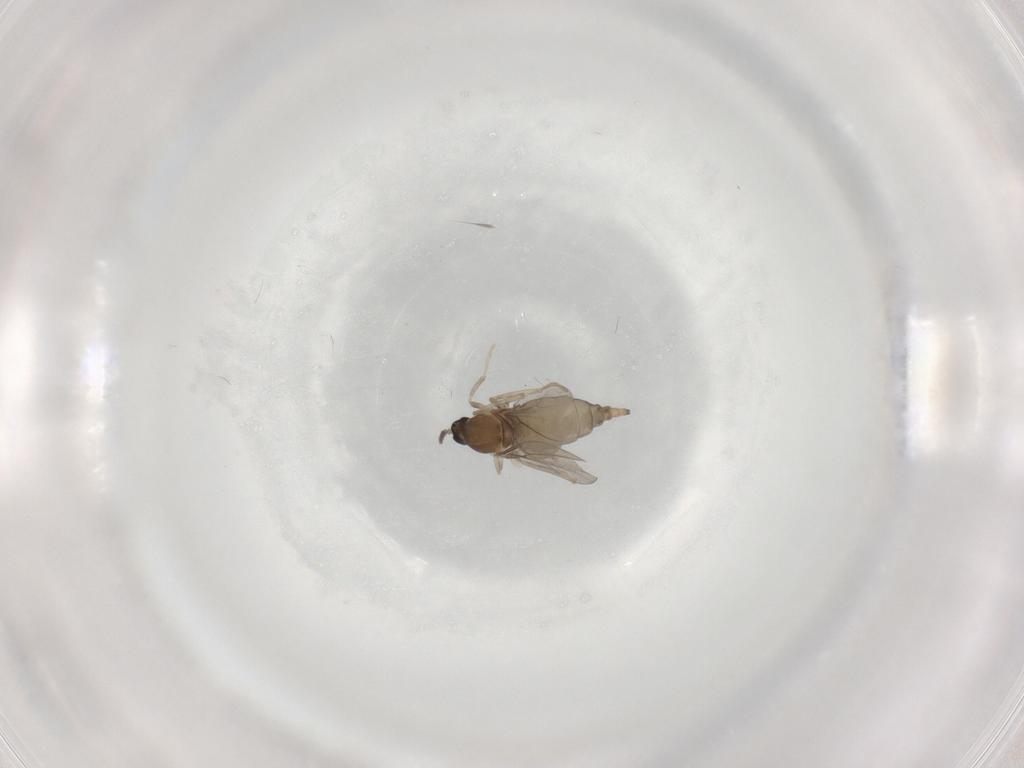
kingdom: Animalia
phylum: Arthropoda
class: Insecta
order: Diptera
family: Cecidomyiidae
